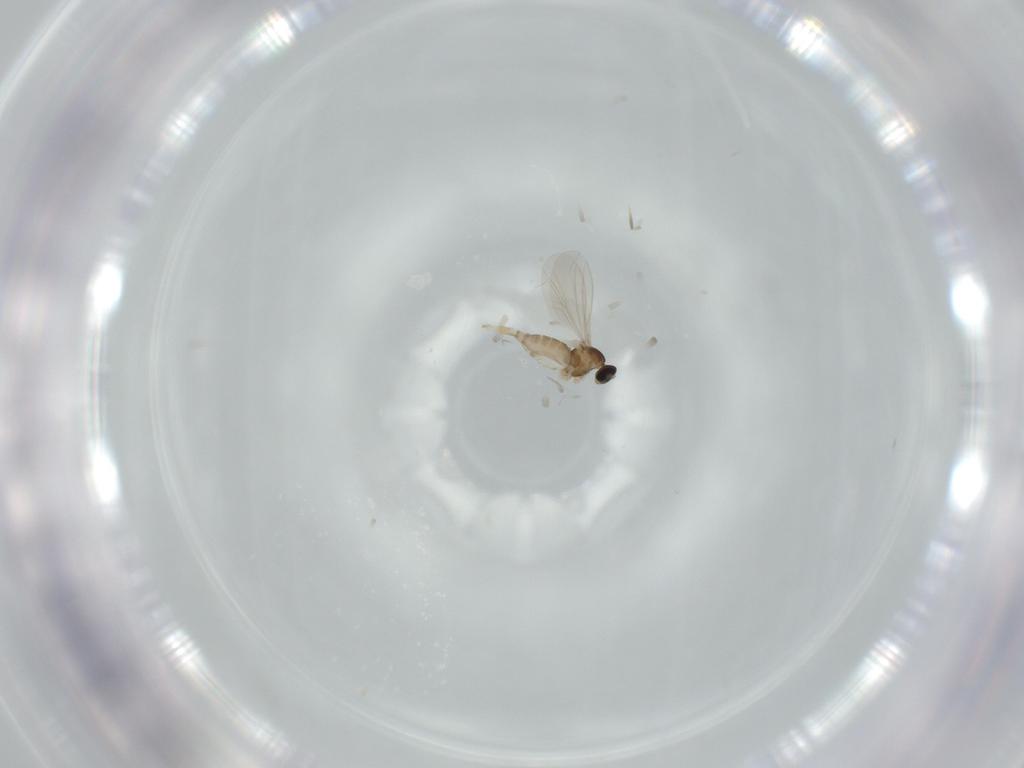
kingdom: Animalia
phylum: Arthropoda
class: Insecta
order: Diptera
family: Cecidomyiidae
